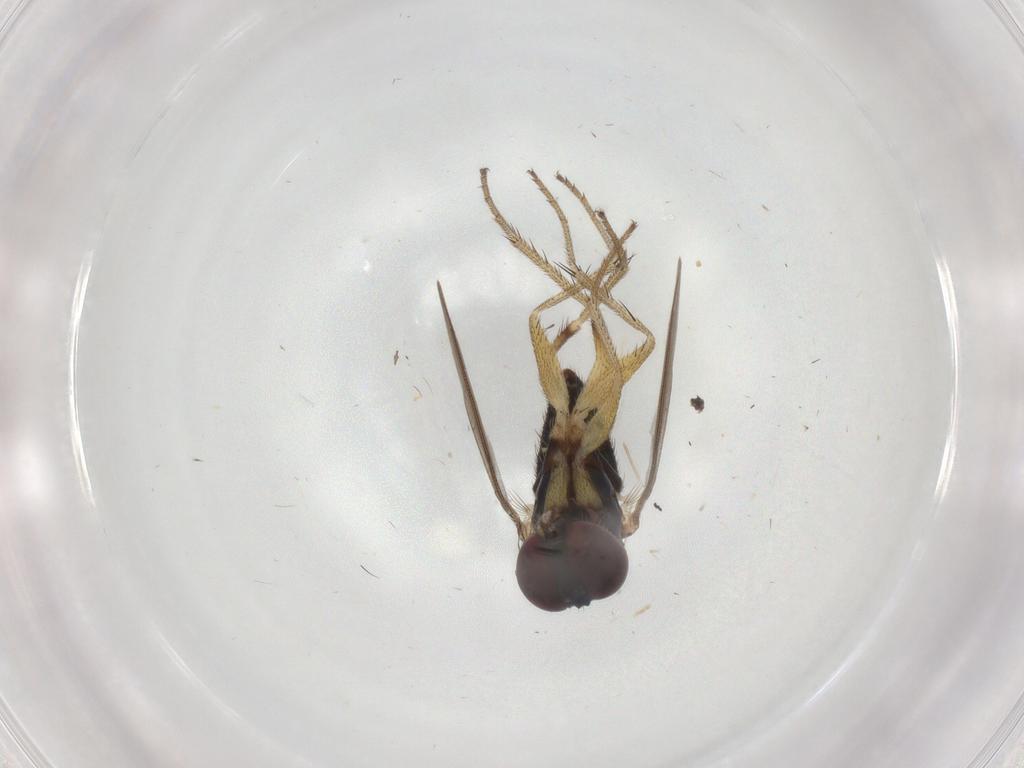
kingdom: Animalia
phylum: Arthropoda
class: Insecta
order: Diptera
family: Dolichopodidae
